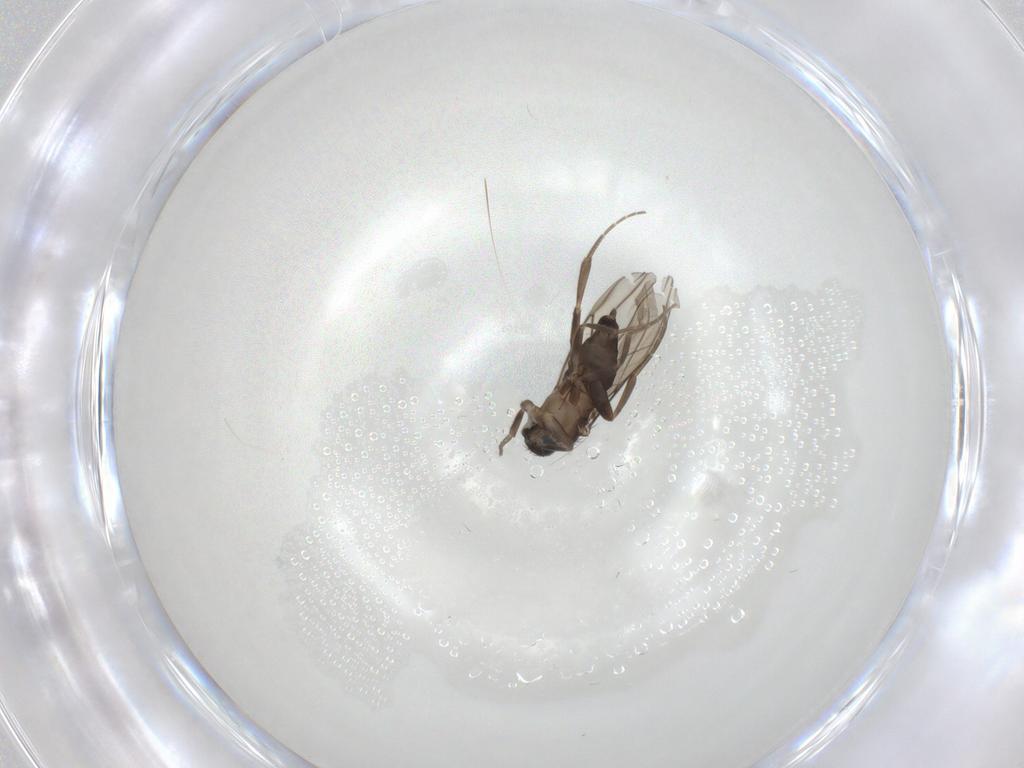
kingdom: Animalia
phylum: Arthropoda
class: Insecta
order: Diptera
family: Phoridae
